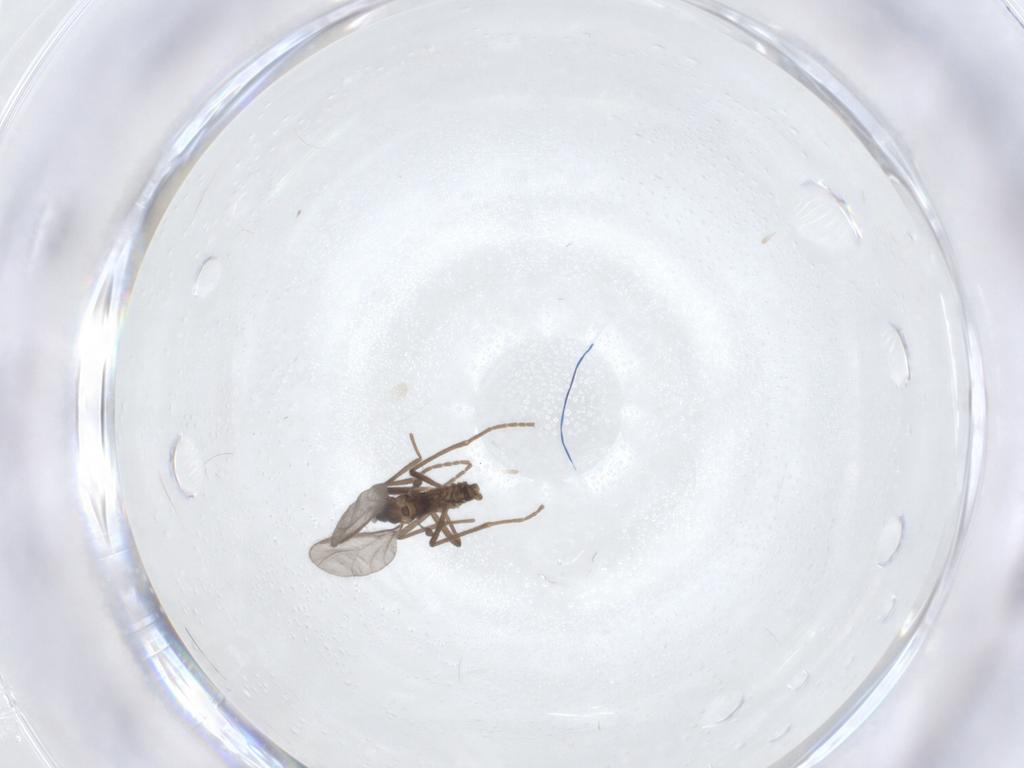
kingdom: Animalia
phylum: Arthropoda
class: Insecta
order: Diptera
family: Cecidomyiidae
